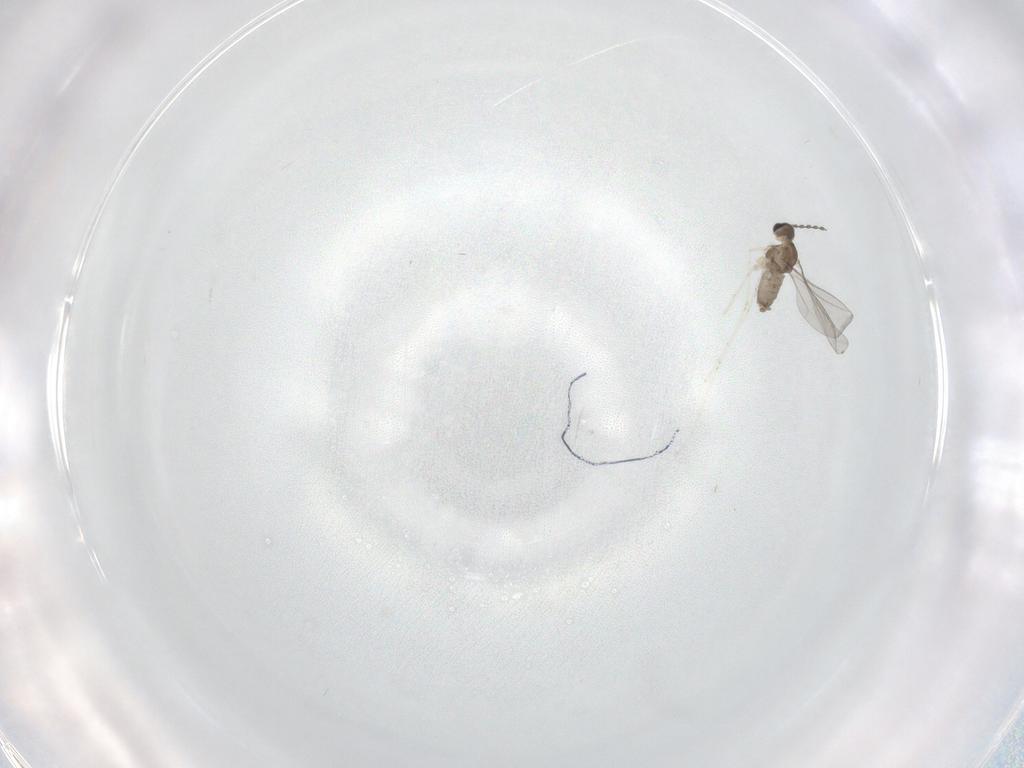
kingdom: Animalia
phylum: Arthropoda
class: Insecta
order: Diptera
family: Cecidomyiidae
